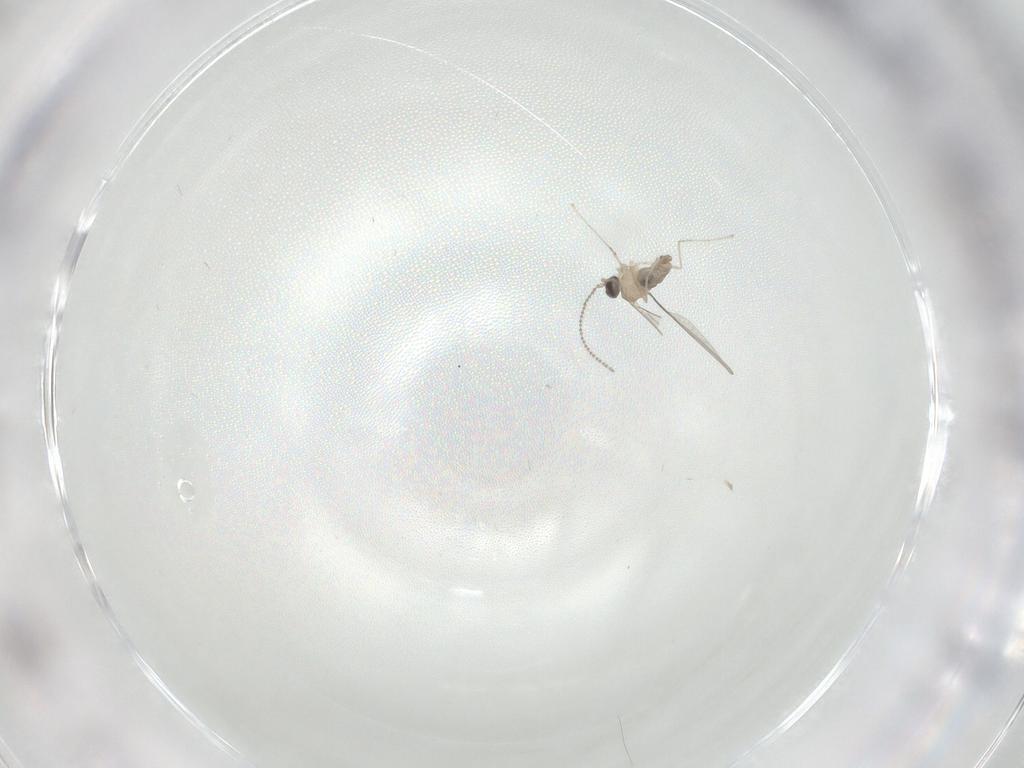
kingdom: Animalia
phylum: Arthropoda
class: Insecta
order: Diptera
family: Cecidomyiidae
